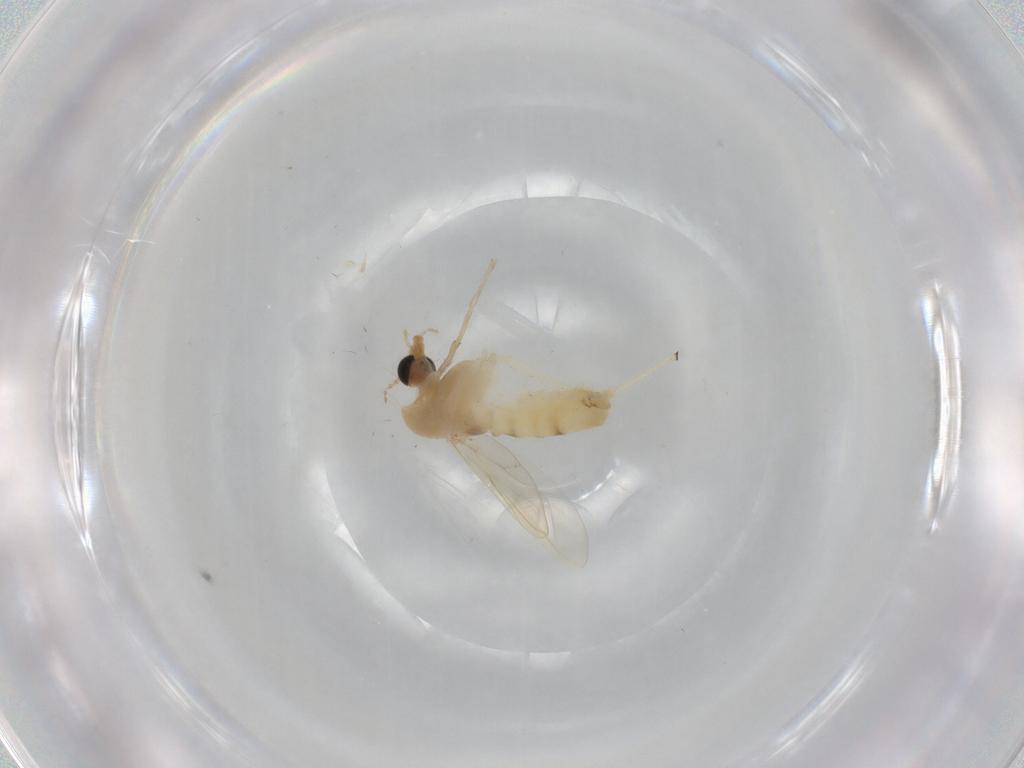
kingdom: Animalia
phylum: Arthropoda
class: Insecta
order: Diptera
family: Chironomidae
